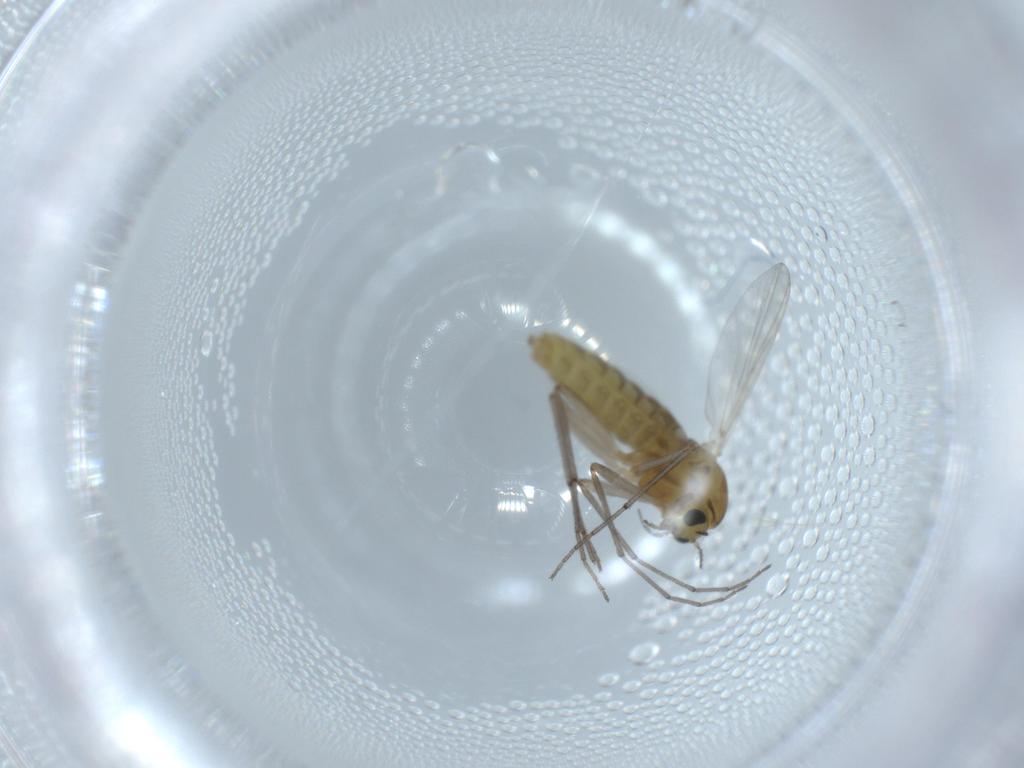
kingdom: Animalia
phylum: Arthropoda
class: Insecta
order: Diptera
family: Chironomidae
